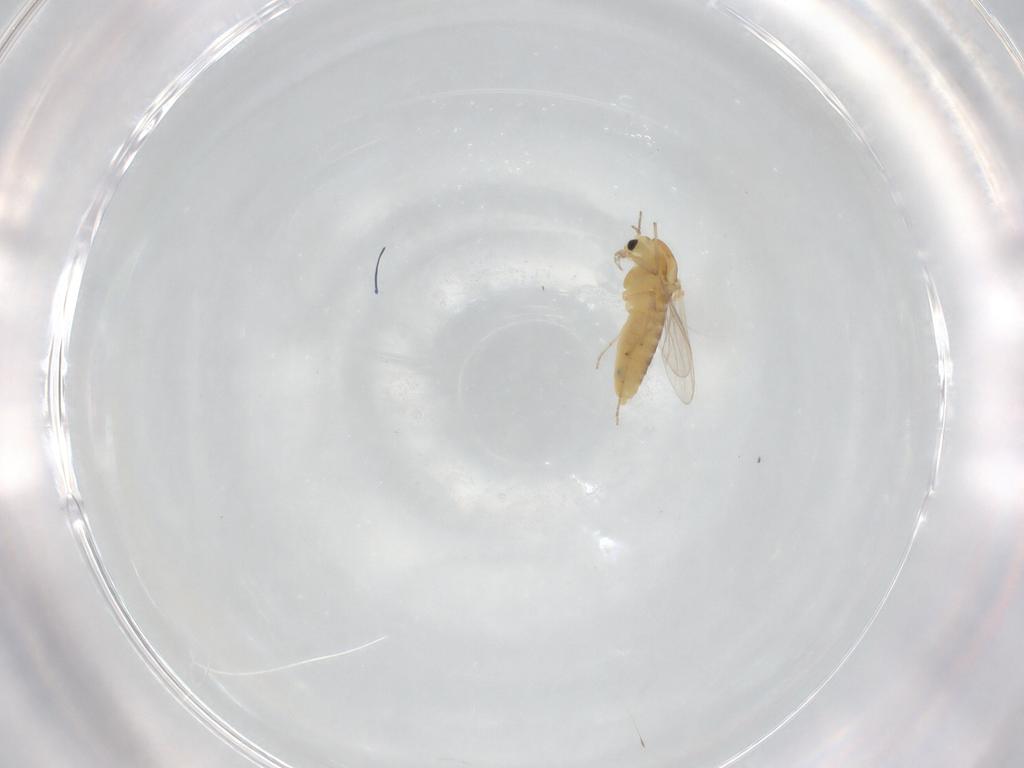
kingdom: Animalia
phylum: Arthropoda
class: Insecta
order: Diptera
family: Chironomidae
